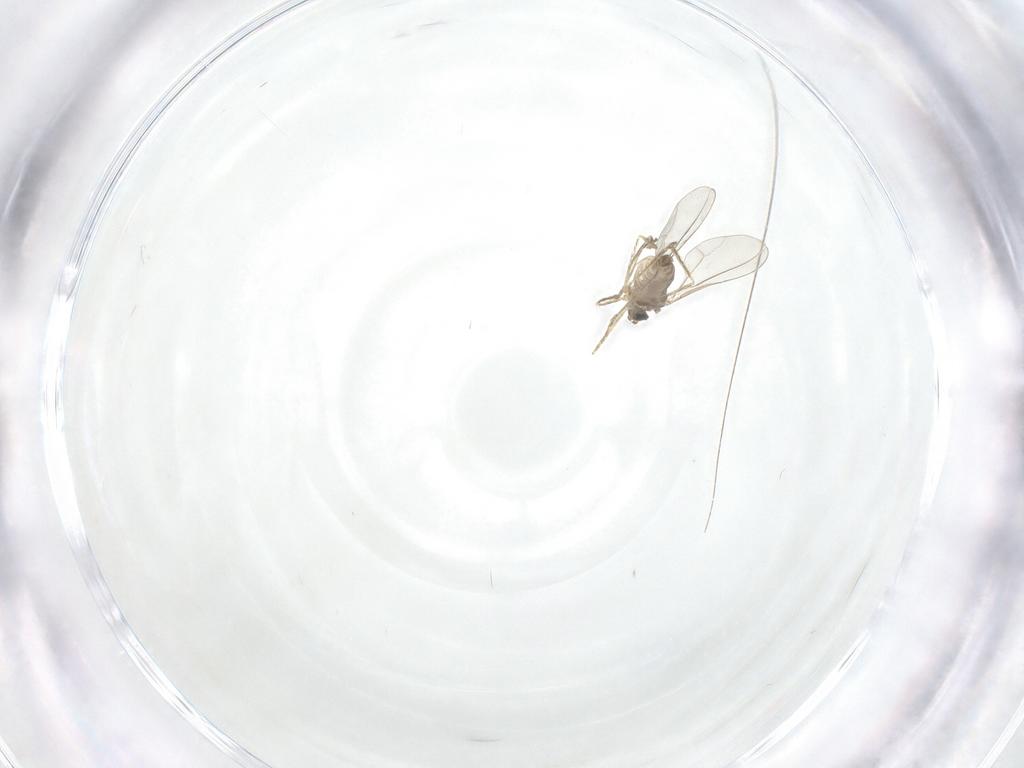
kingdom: Animalia
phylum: Arthropoda
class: Insecta
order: Diptera
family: Cecidomyiidae
